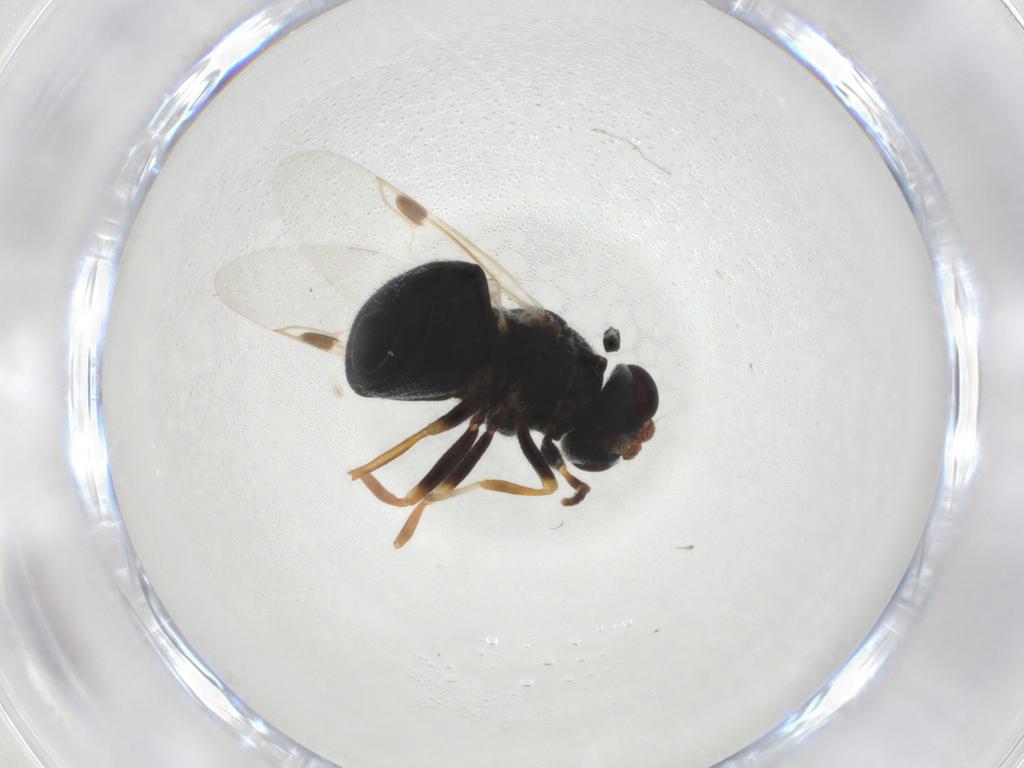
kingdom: Animalia
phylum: Arthropoda
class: Insecta
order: Diptera
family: Stratiomyidae
